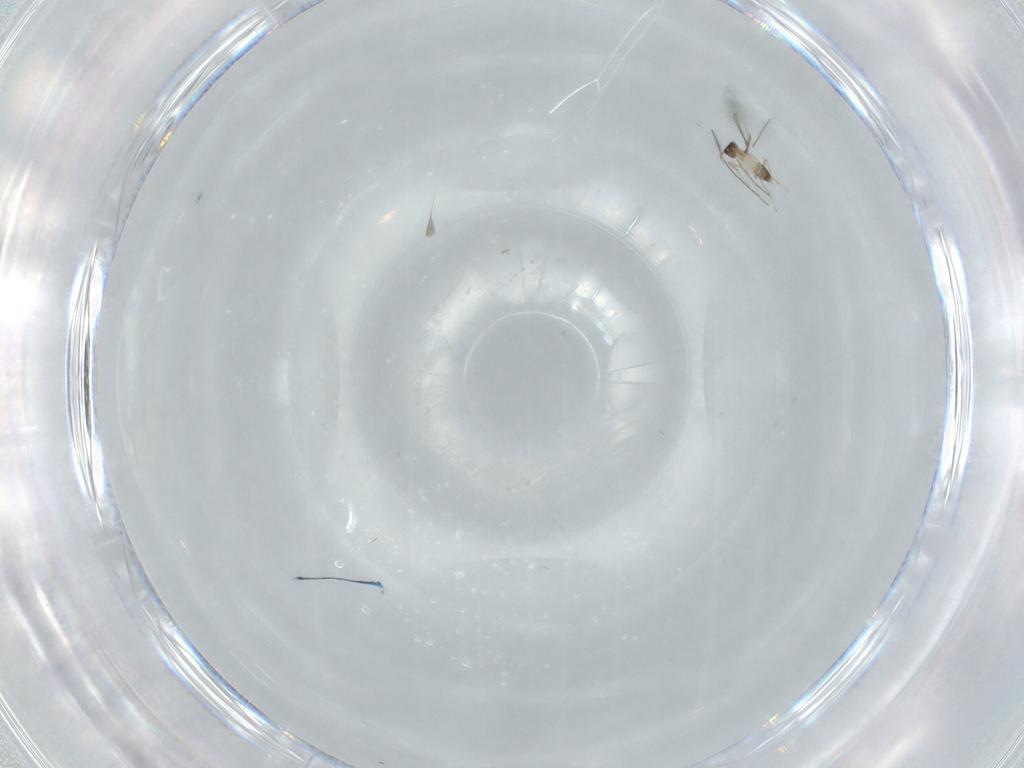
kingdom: Animalia
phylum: Arthropoda
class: Insecta
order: Hymenoptera
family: Mymaridae
